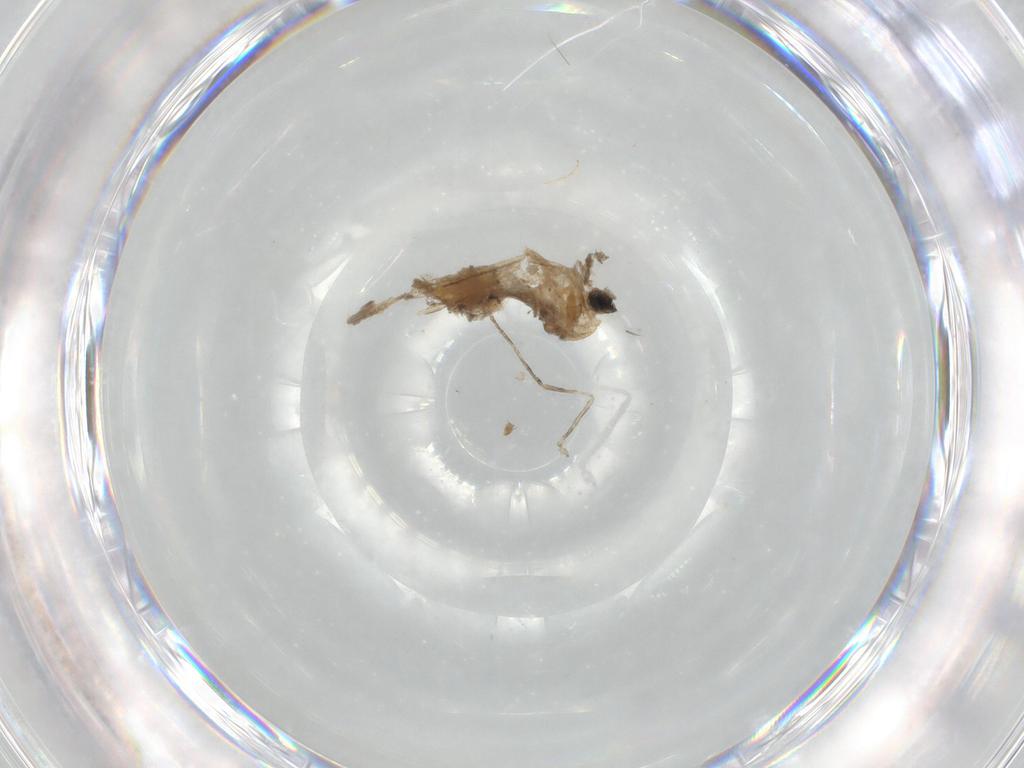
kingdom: Animalia
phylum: Arthropoda
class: Insecta
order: Diptera
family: Chironomidae
